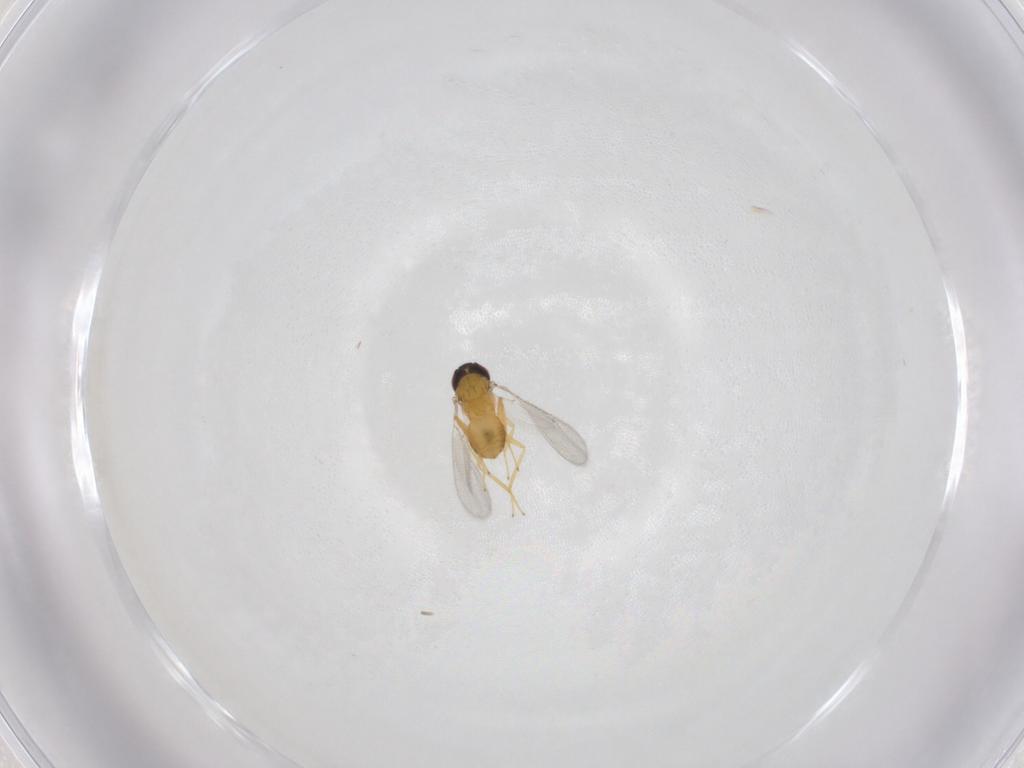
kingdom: Animalia
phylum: Arthropoda
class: Insecta
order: Hymenoptera
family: Eulophidae
